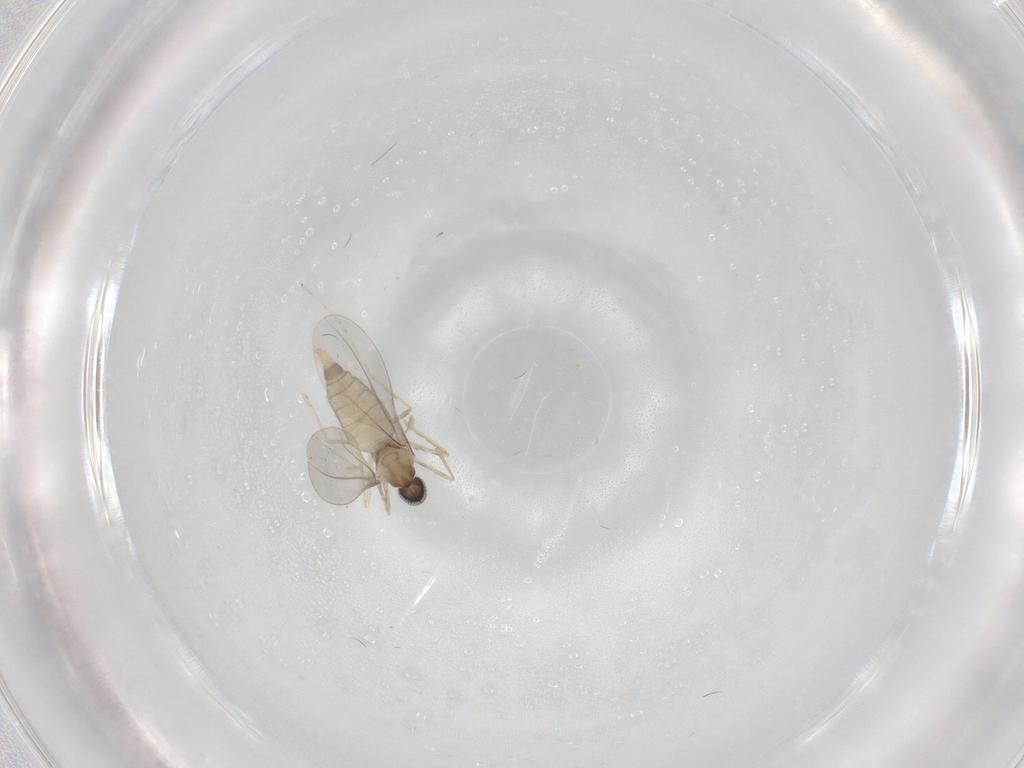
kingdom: Animalia
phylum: Arthropoda
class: Insecta
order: Diptera
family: Cecidomyiidae
